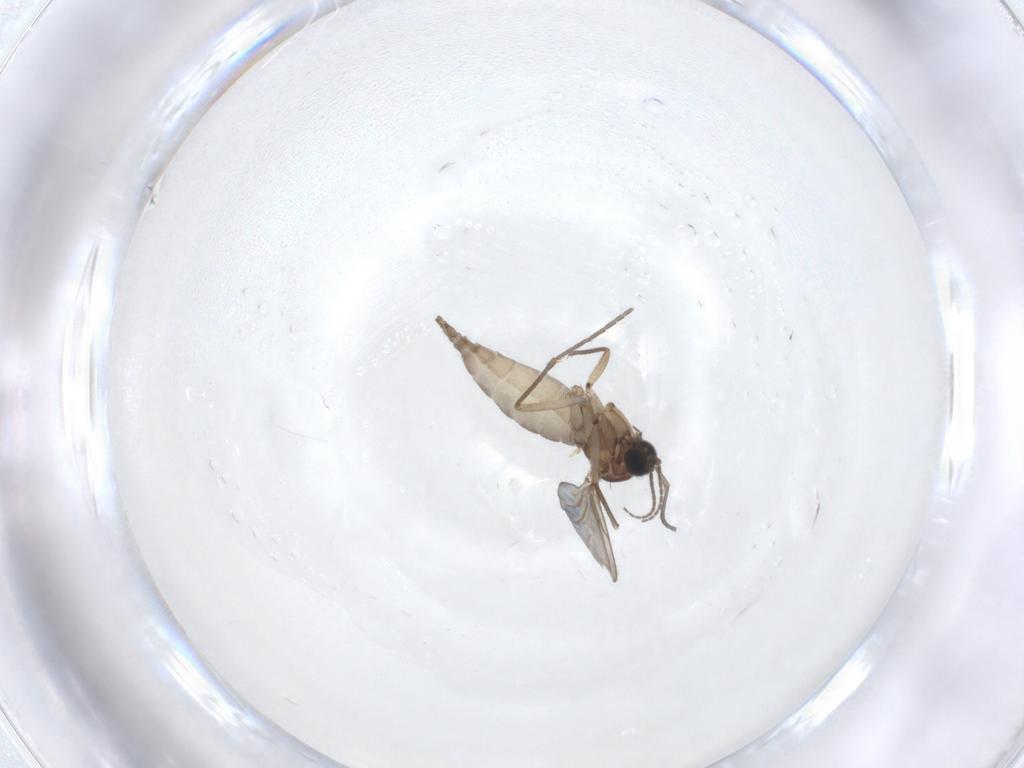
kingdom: Animalia
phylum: Arthropoda
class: Insecta
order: Diptera
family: Sciaridae
